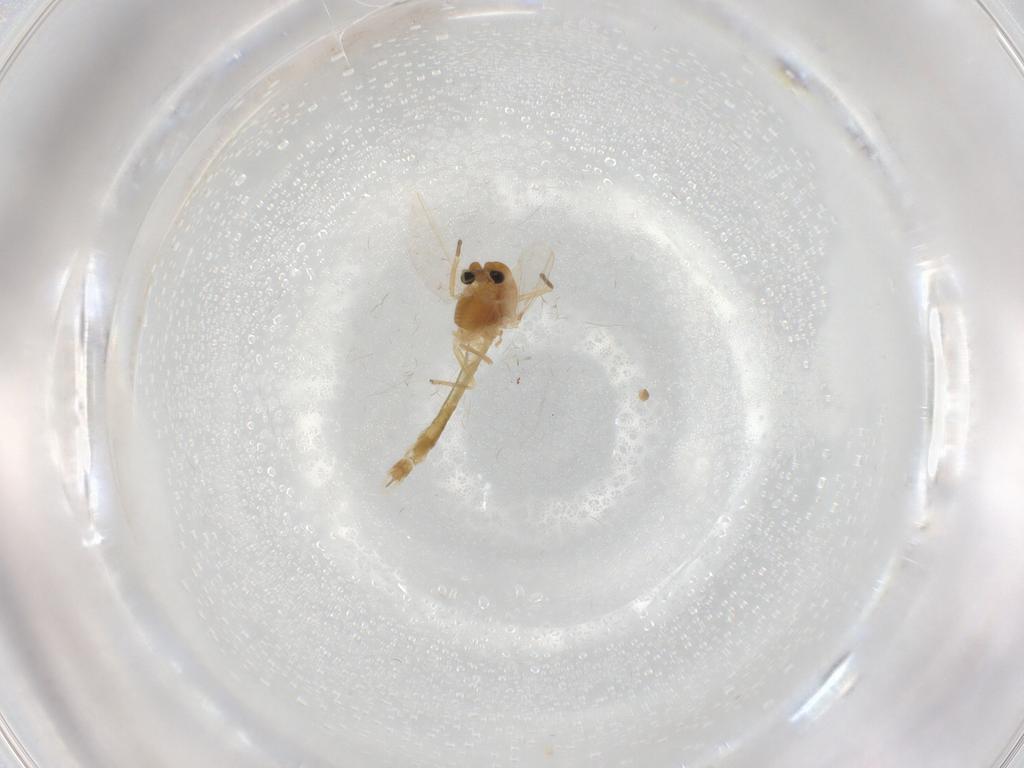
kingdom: Animalia
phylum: Arthropoda
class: Insecta
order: Diptera
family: Chironomidae
